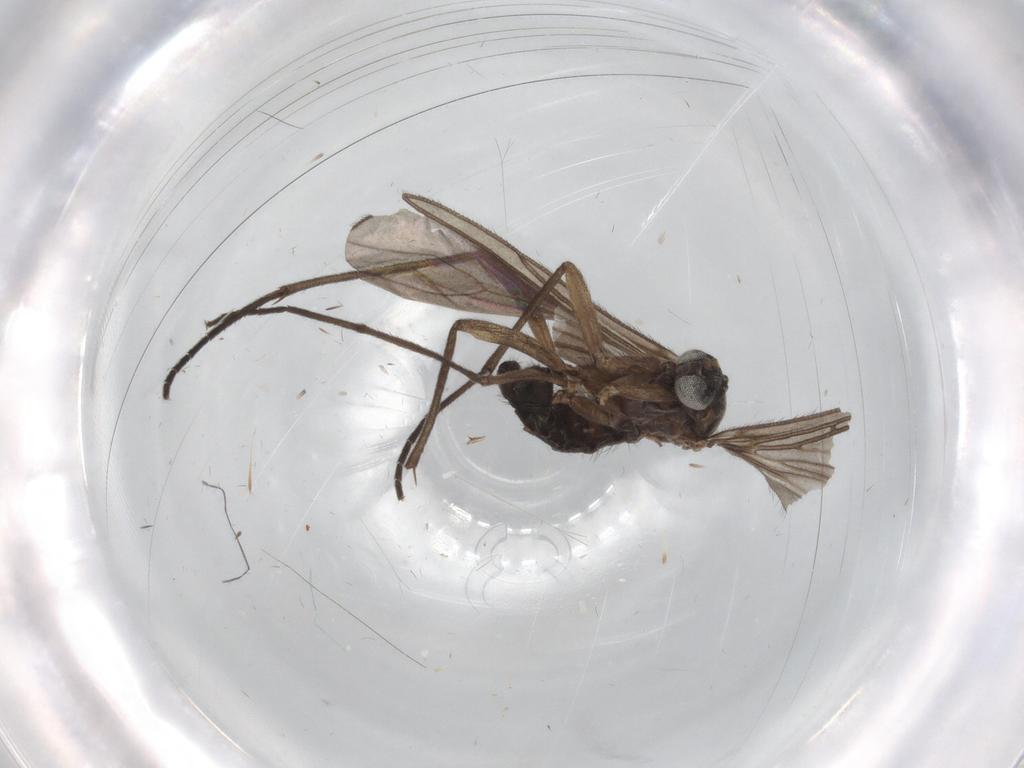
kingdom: Animalia
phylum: Arthropoda
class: Insecta
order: Diptera
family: Sciaridae
